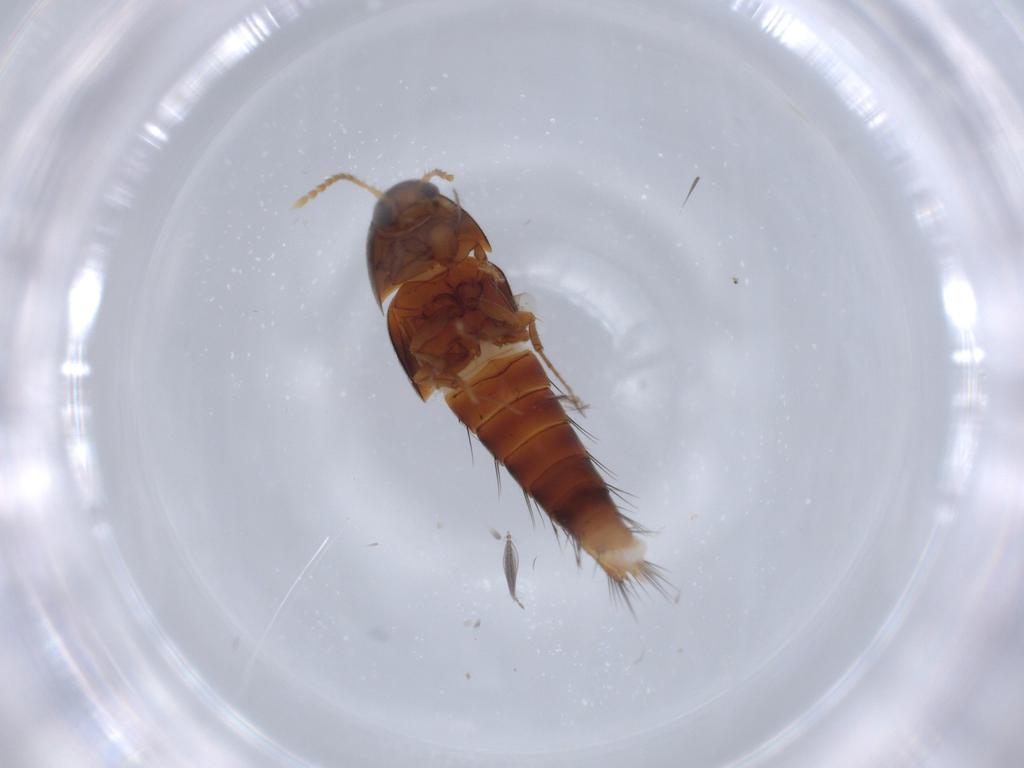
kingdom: Animalia
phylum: Arthropoda
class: Insecta
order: Coleoptera
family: Staphylinidae
